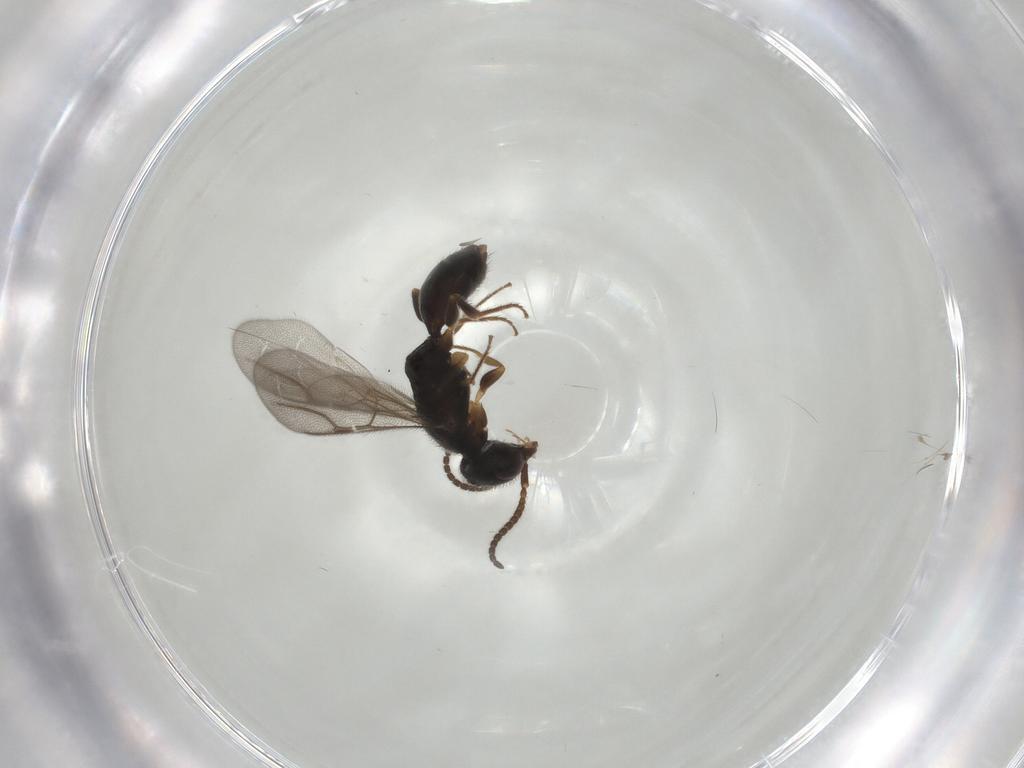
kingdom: Animalia
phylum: Arthropoda
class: Insecta
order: Hymenoptera
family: Bethylidae
